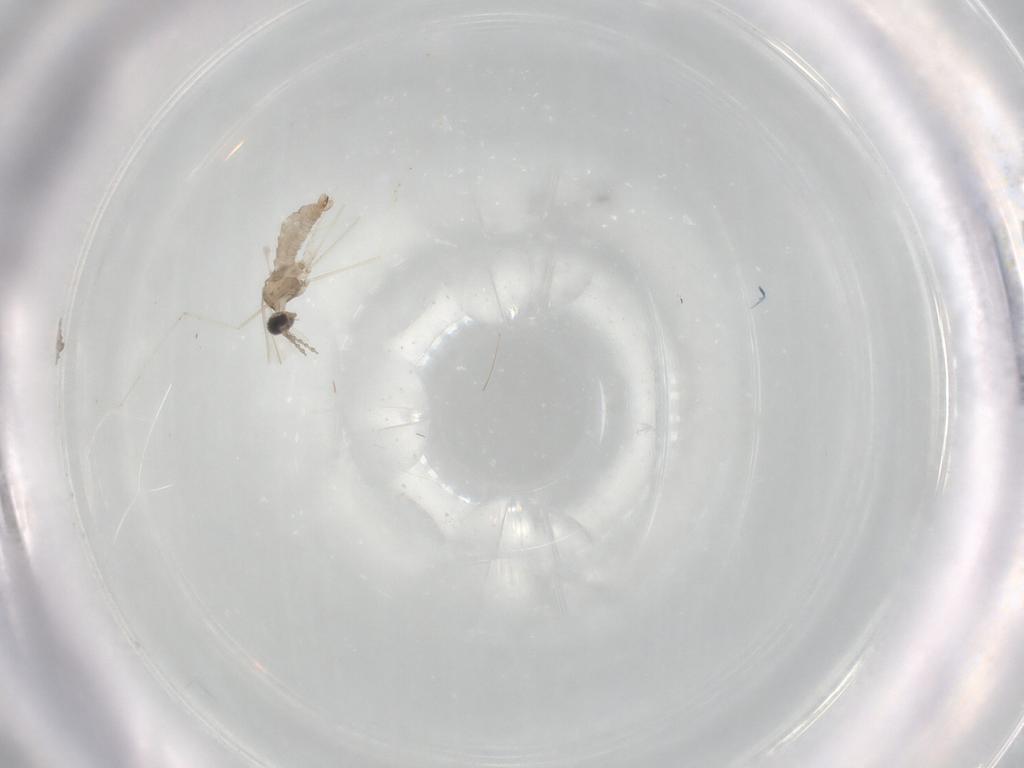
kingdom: Animalia
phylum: Arthropoda
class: Insecta
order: Diptera
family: Cecidomyiidae
